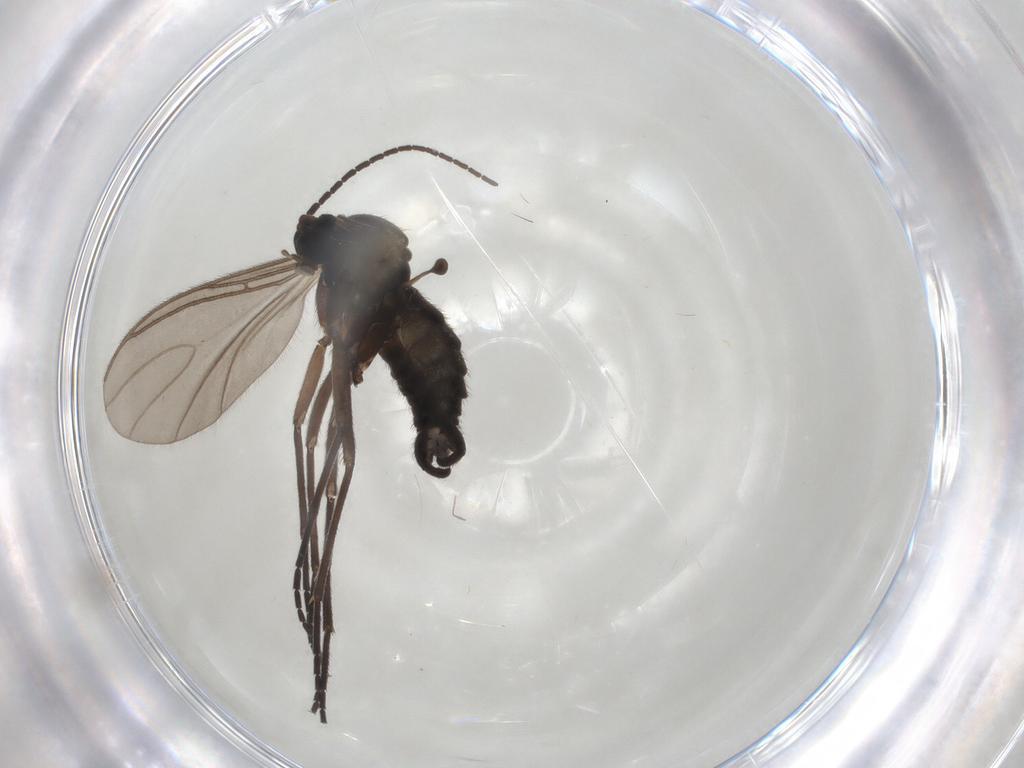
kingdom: Animalia
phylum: Arthropoda
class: Insecta
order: Diptera
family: Sciaridae
